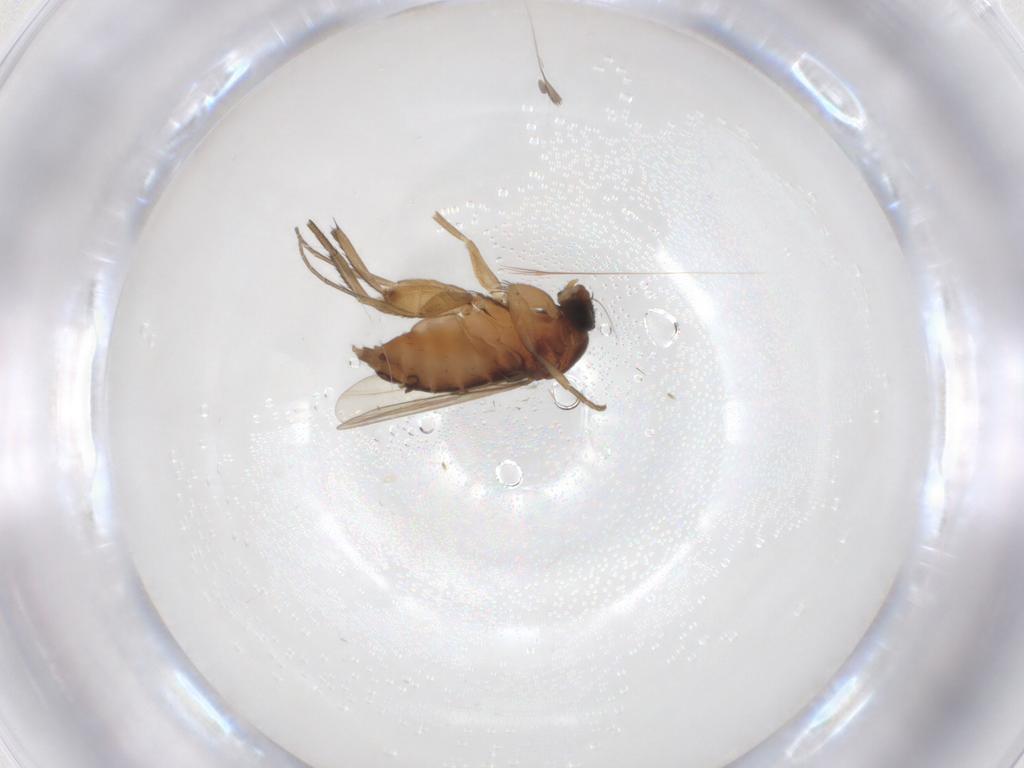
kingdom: Animalia
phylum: Arthropoda
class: Insecta
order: Diptera
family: Phoridae
